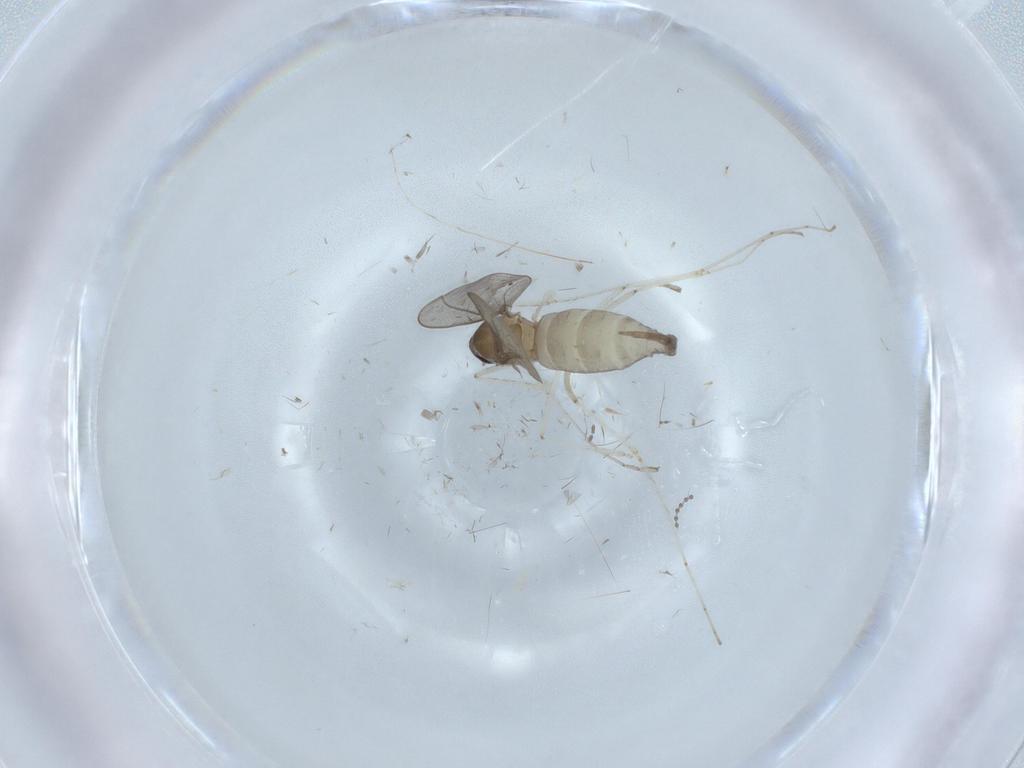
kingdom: Animalia
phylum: Arthropoda
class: Insecta
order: Diptera
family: Cecidomyiidae
